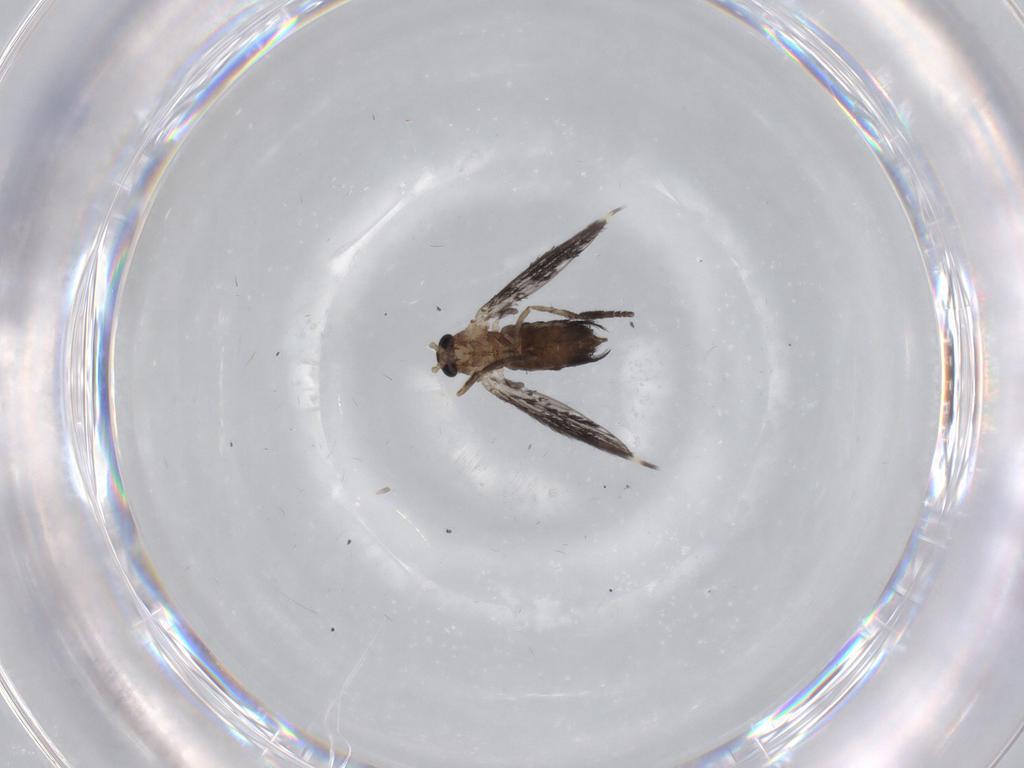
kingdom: Animalia
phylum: Arthropoda
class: Insecta
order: Diptera
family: Psychodidae
